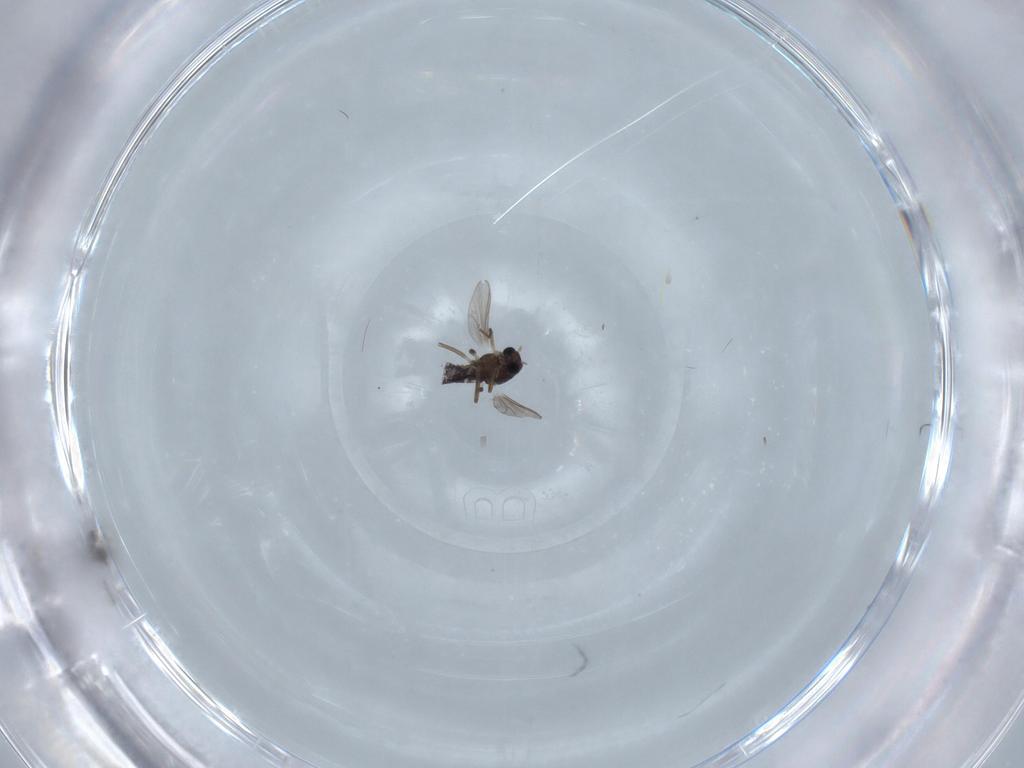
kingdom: Animalia
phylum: Arthropoda
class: Insecta
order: Diptera
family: Chironomidae
